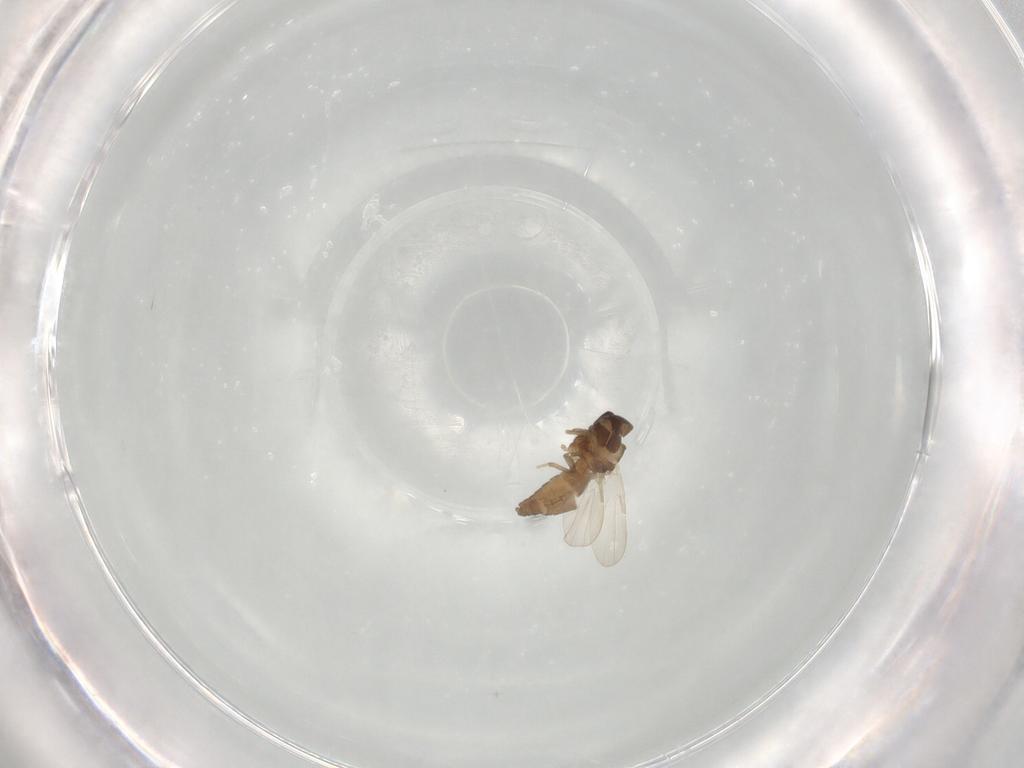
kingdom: Animalia
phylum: Arthropoda
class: Insecta
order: Diptera
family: Ceratopogonidae
